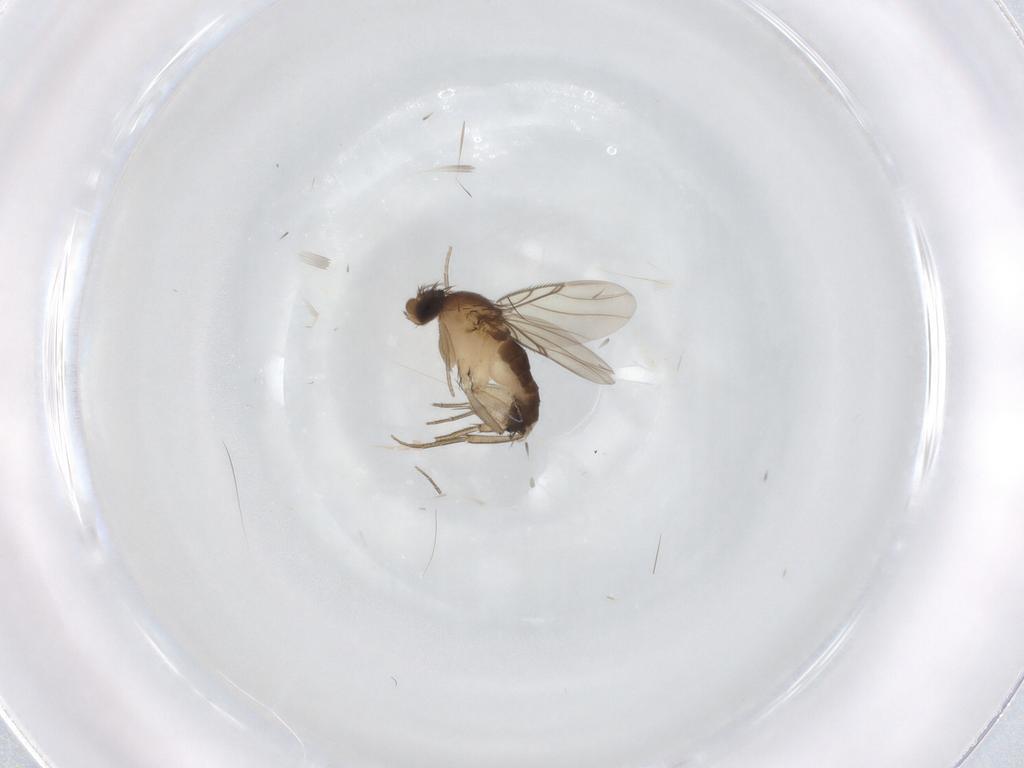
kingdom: Animalia
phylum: Arthropoda
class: Insecta
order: Diptera
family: Phoridae
